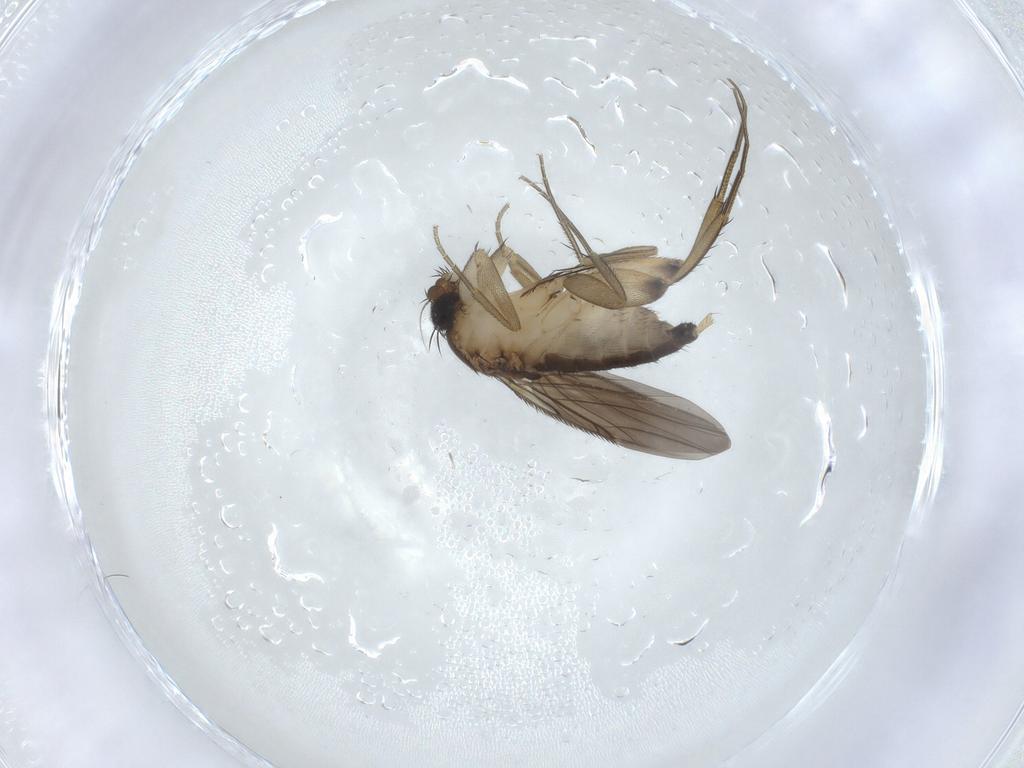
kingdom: Animalia
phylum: Arthropoda
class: Insecta
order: Diptera
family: Phoridae
